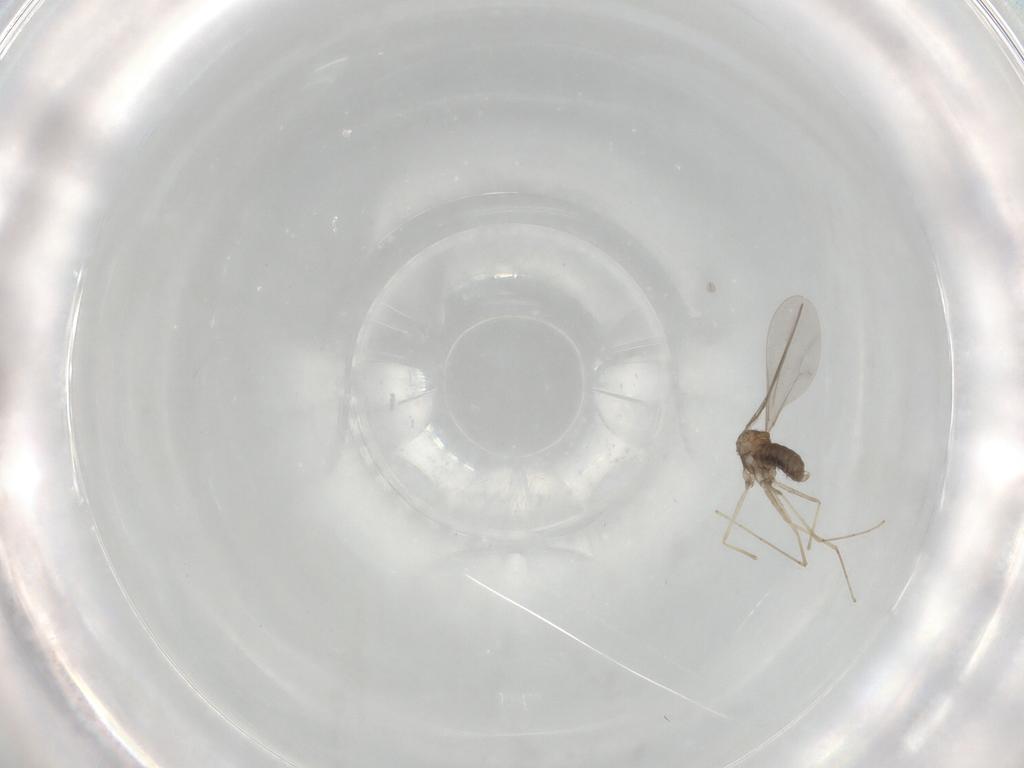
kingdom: Animalia
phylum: Arthropoda
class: Insecta
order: Diptera
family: Cecidomyiidae
